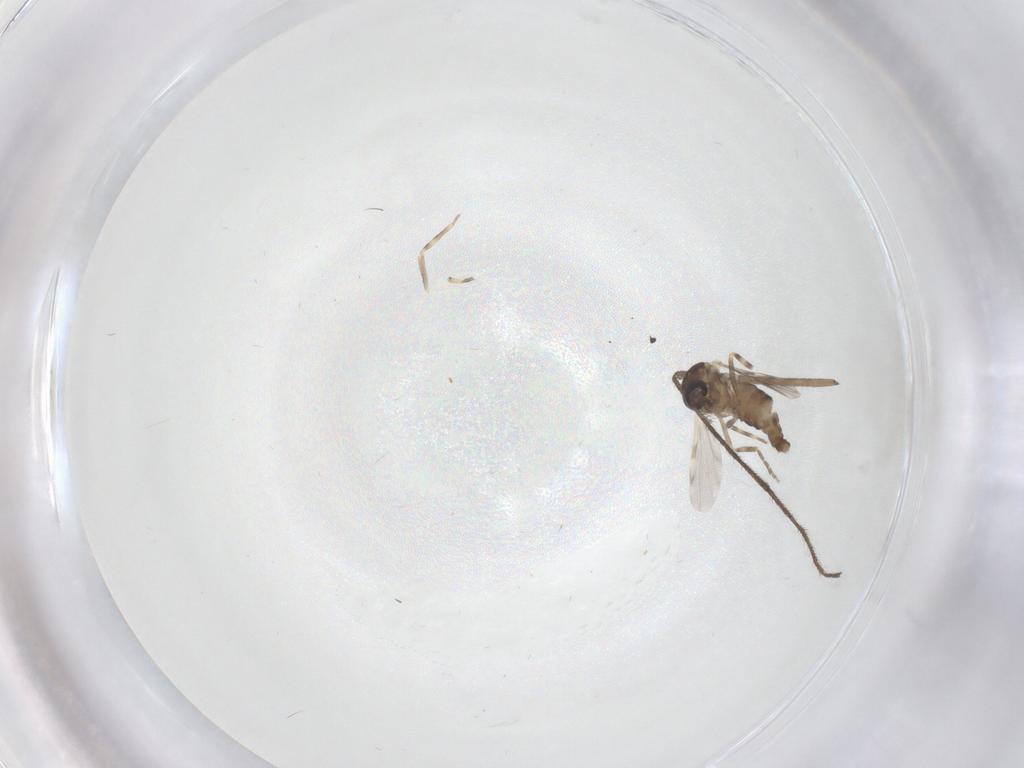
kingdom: Animalia
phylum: Arthropoda
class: Insecta
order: Diptera
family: Ceratopogonidae
